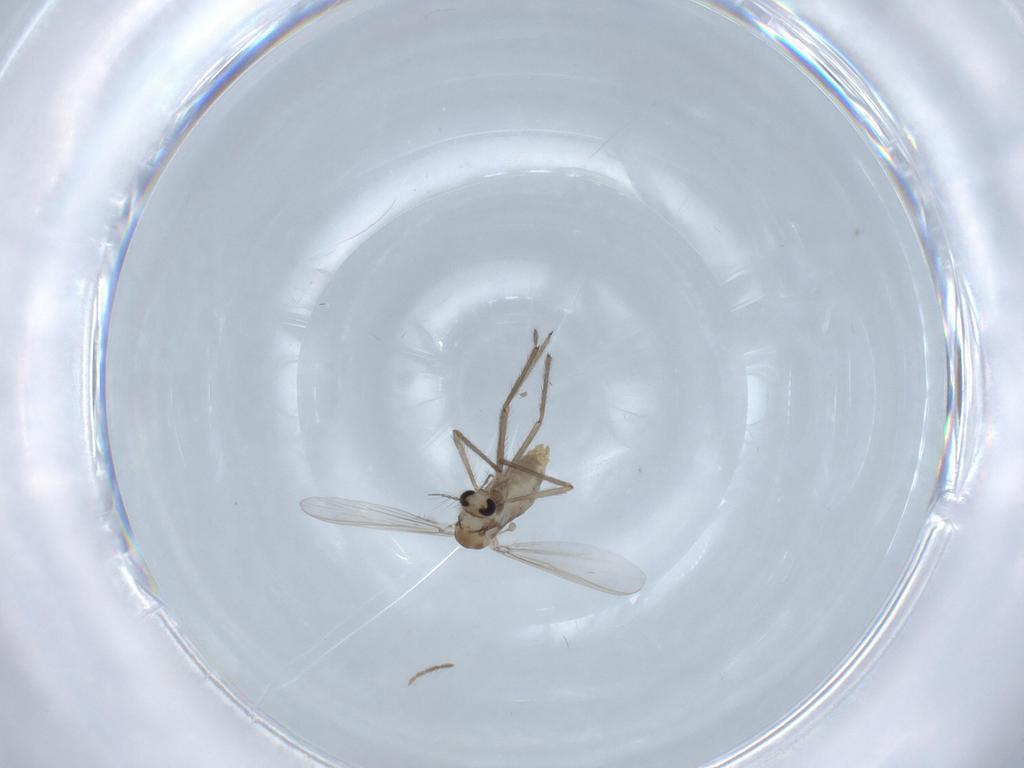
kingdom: Animalia
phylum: Arthropoda
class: Insecta
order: Diptera
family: Chironomidae
